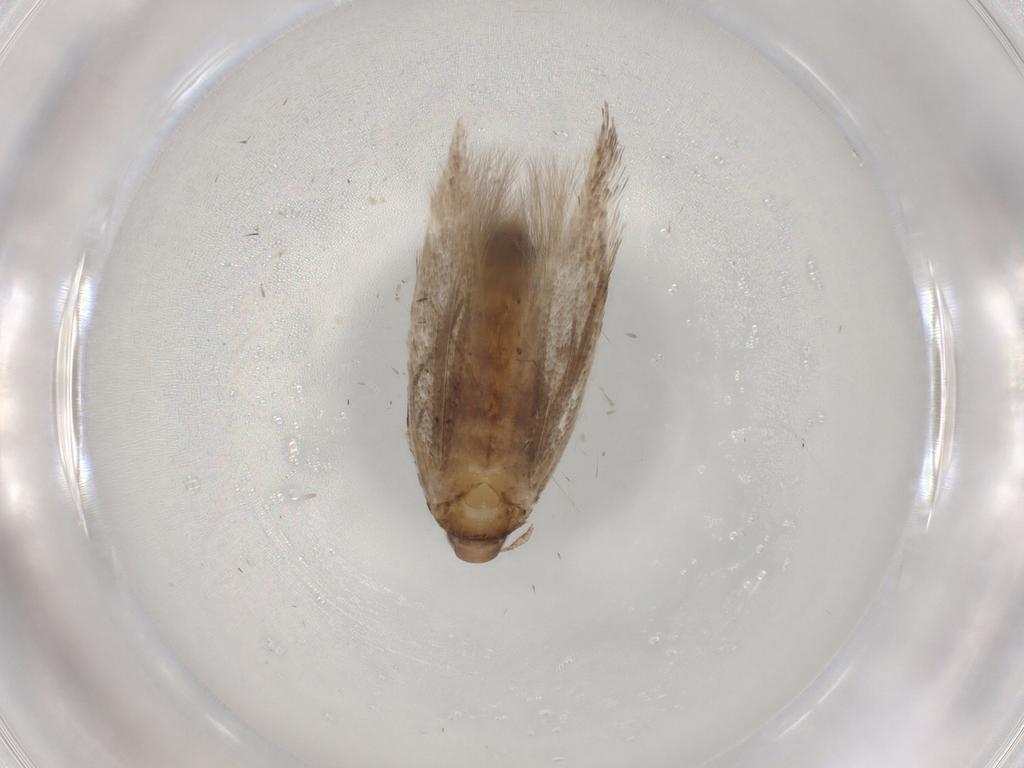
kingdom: Animalia
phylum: Arthropoda
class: Insecta
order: Lepidoptera
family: Cosmopterigidae
